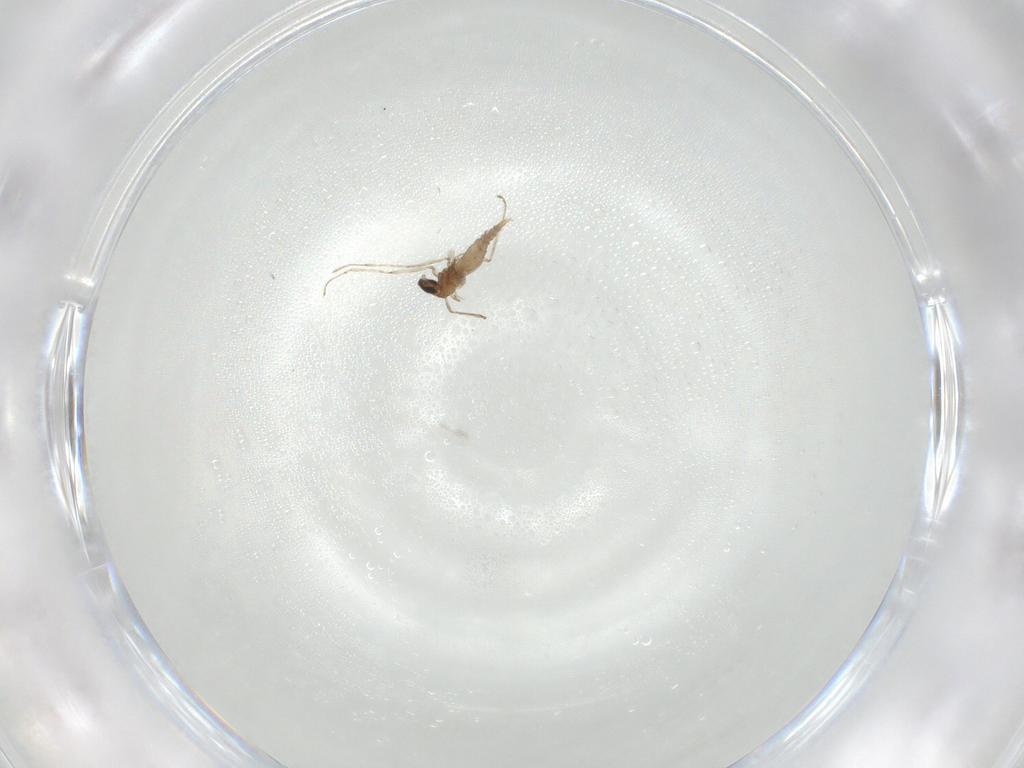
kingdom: Animalia
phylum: Arthropoda
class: Insecta
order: Diptera
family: Cecidomyiidae
